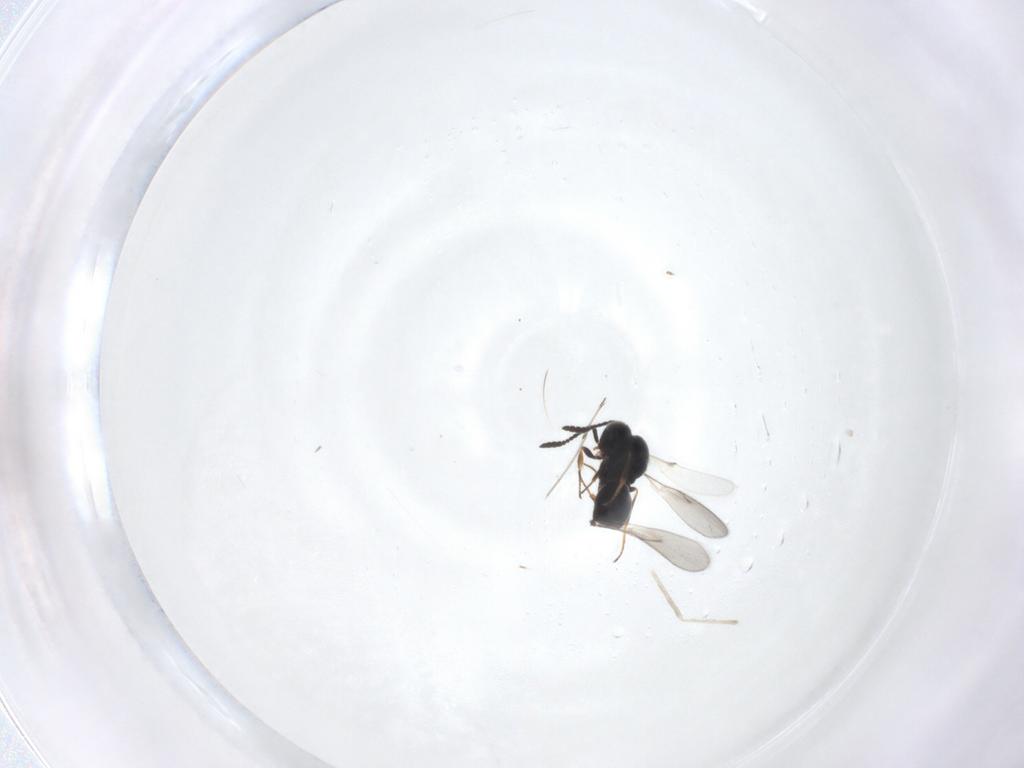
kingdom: Animalia
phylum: Arthropoda
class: Insecta
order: Hymenoptera
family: Scelionidae
